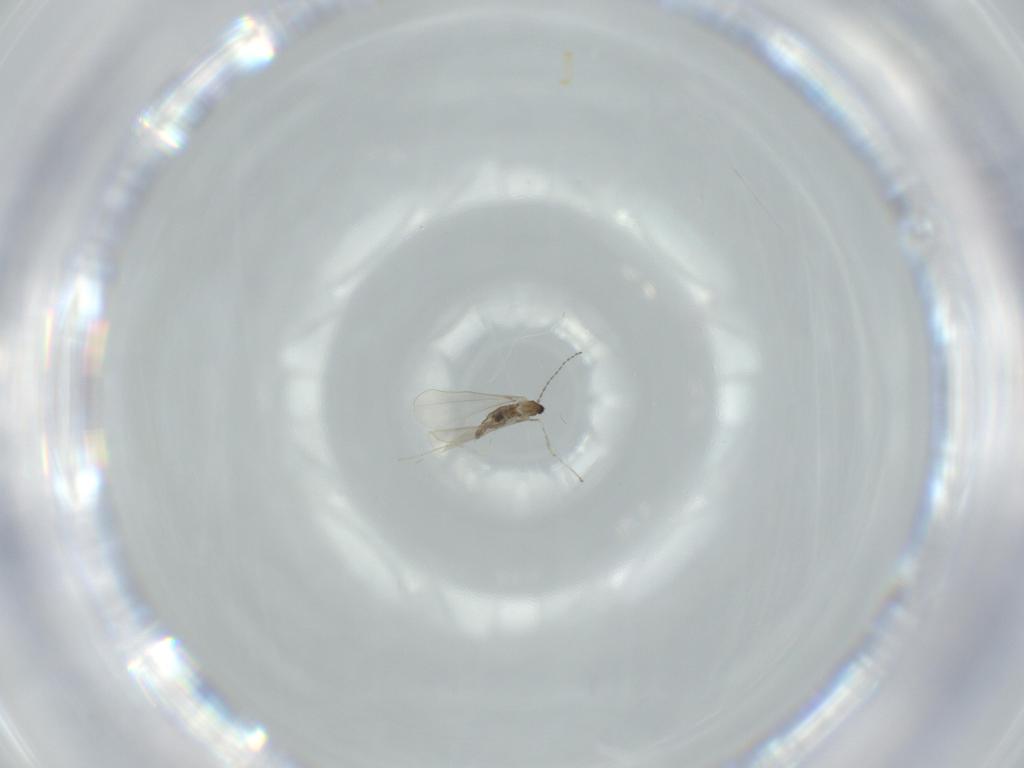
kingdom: Animalia
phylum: Arthropoda
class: Insecta
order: Diptera
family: Cecidomyiidae
